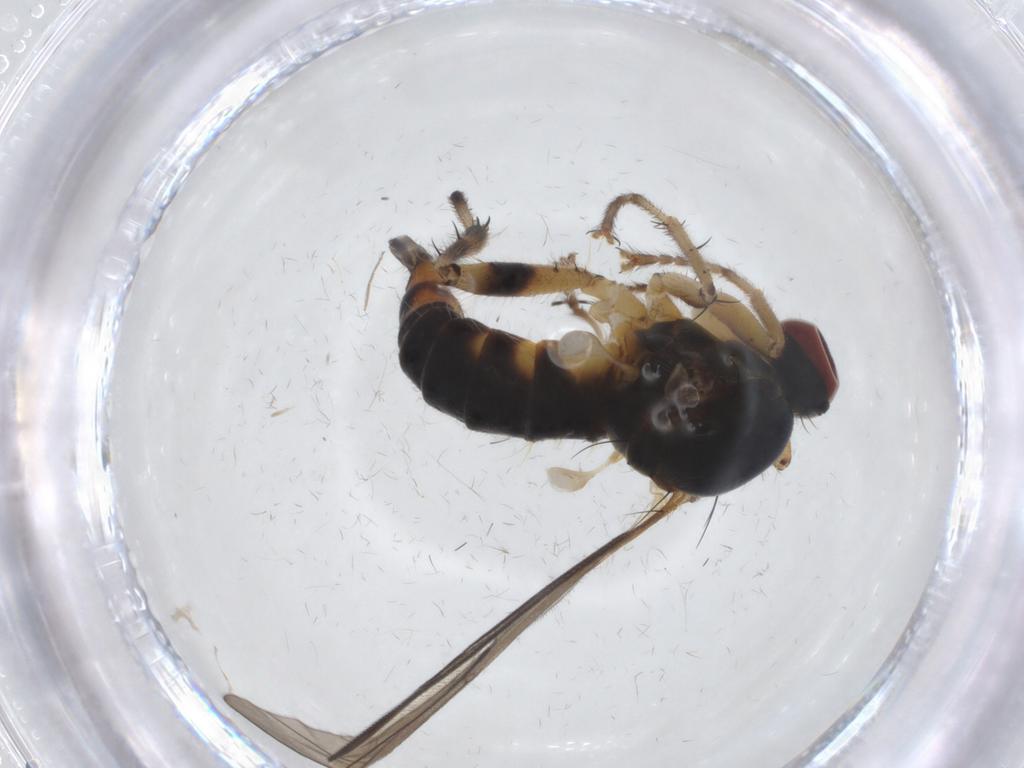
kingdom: Animalia
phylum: Arthropoda
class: Insecta
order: Diptera
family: Hybotidae
